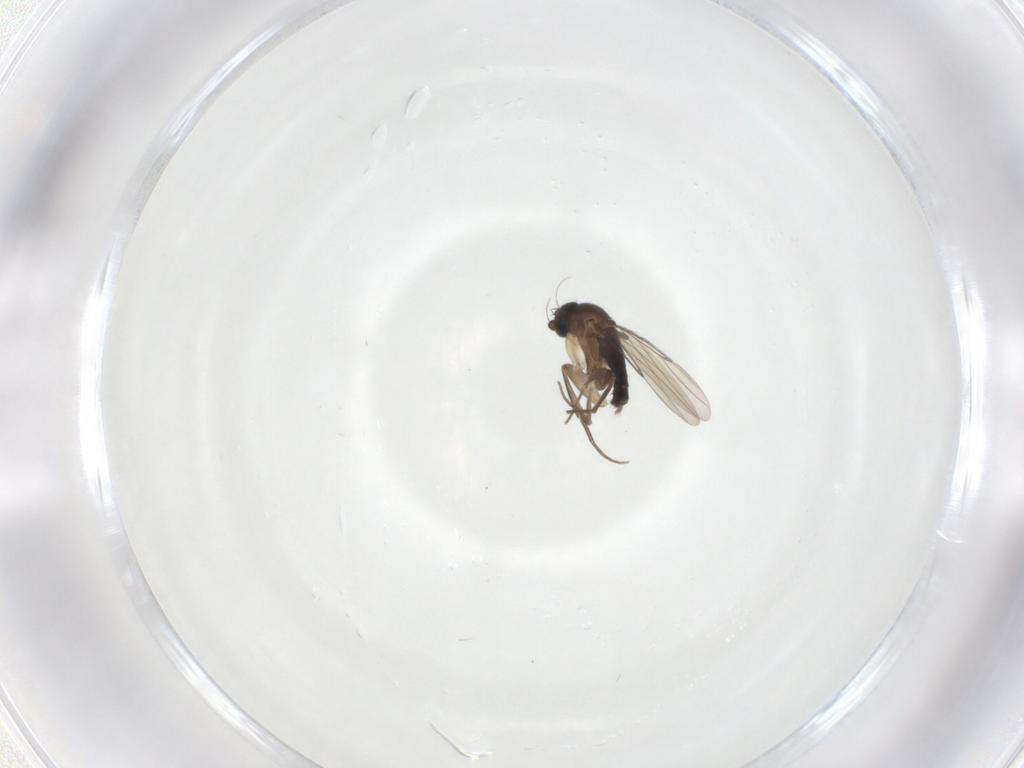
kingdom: Animalia
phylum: Arthropoda
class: Insecta
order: Diptera
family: Phoridae
